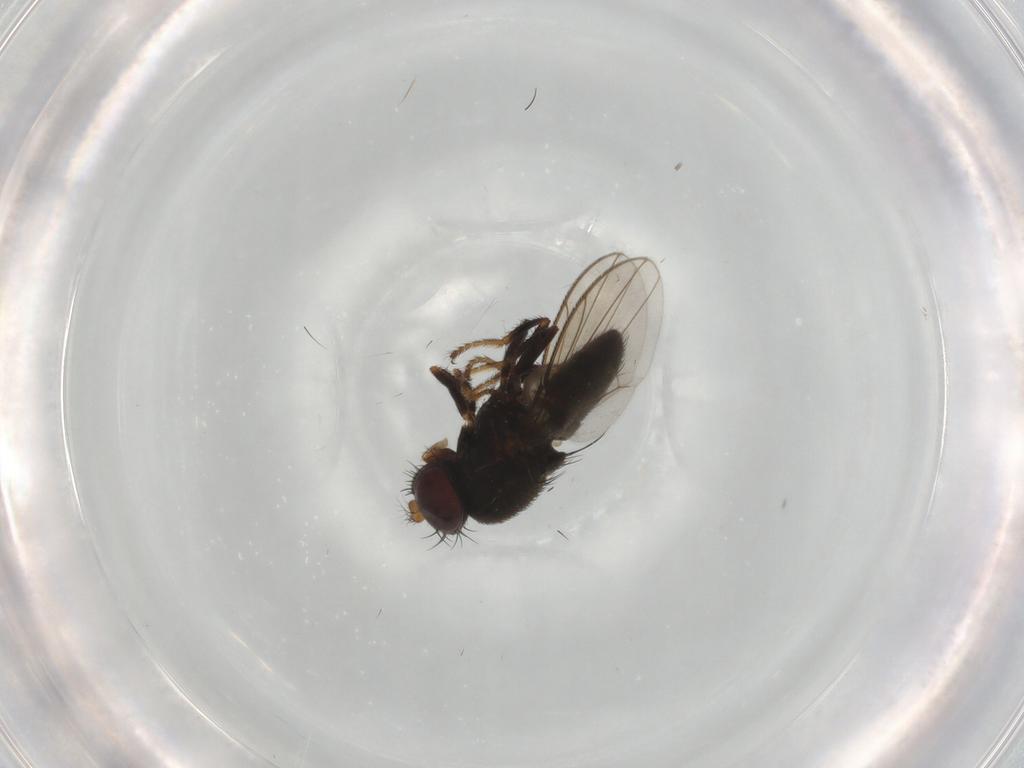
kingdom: Animalia
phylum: Arthropoda
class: Insecta
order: Diptera
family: Ephydridae
